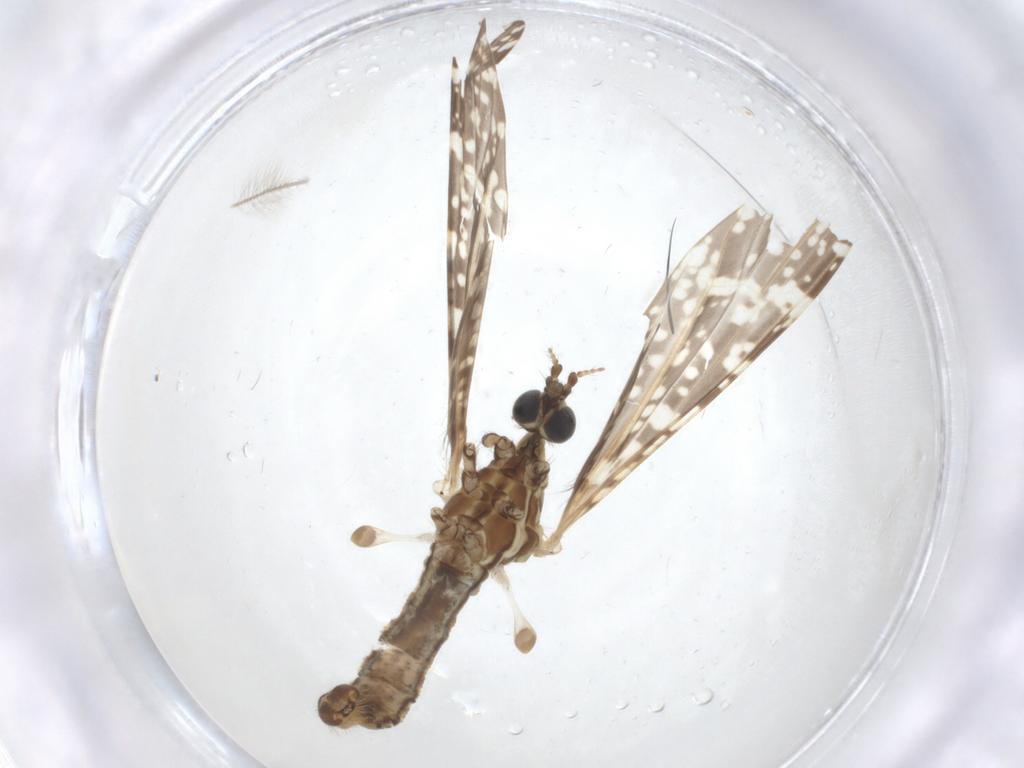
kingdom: Animalia
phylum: Arthropoda
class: Insecta
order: Diptera
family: Limoniidae
